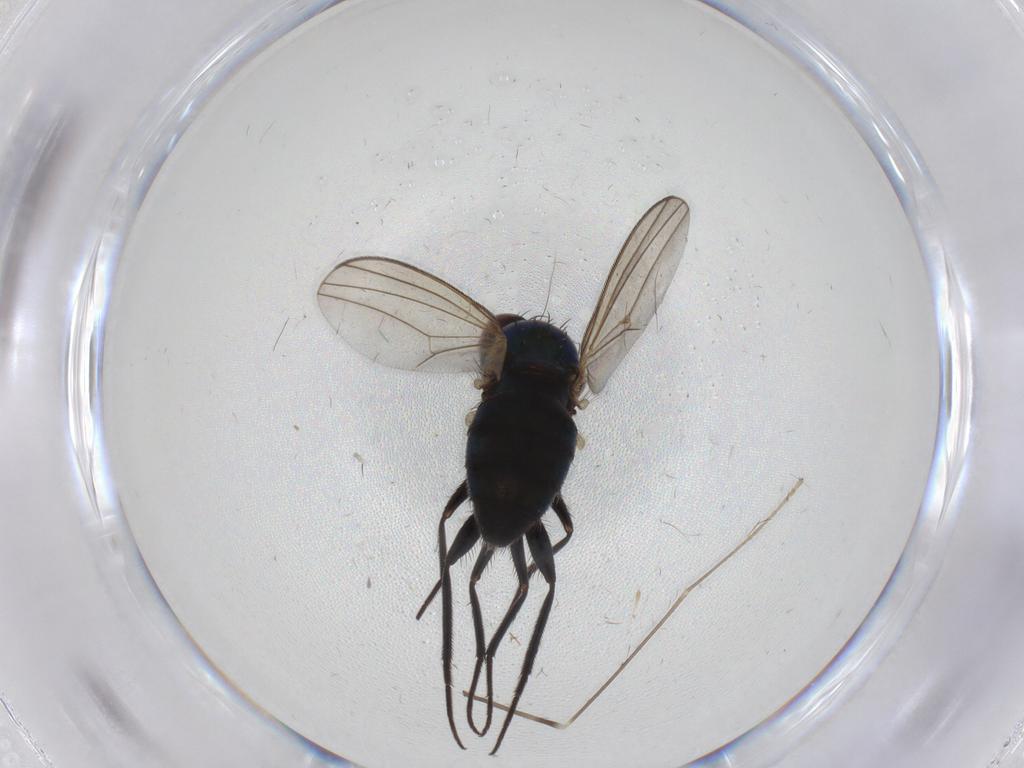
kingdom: Animalia
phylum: Arthropoda
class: Insecta
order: Diptera
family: Dolichopodidae
